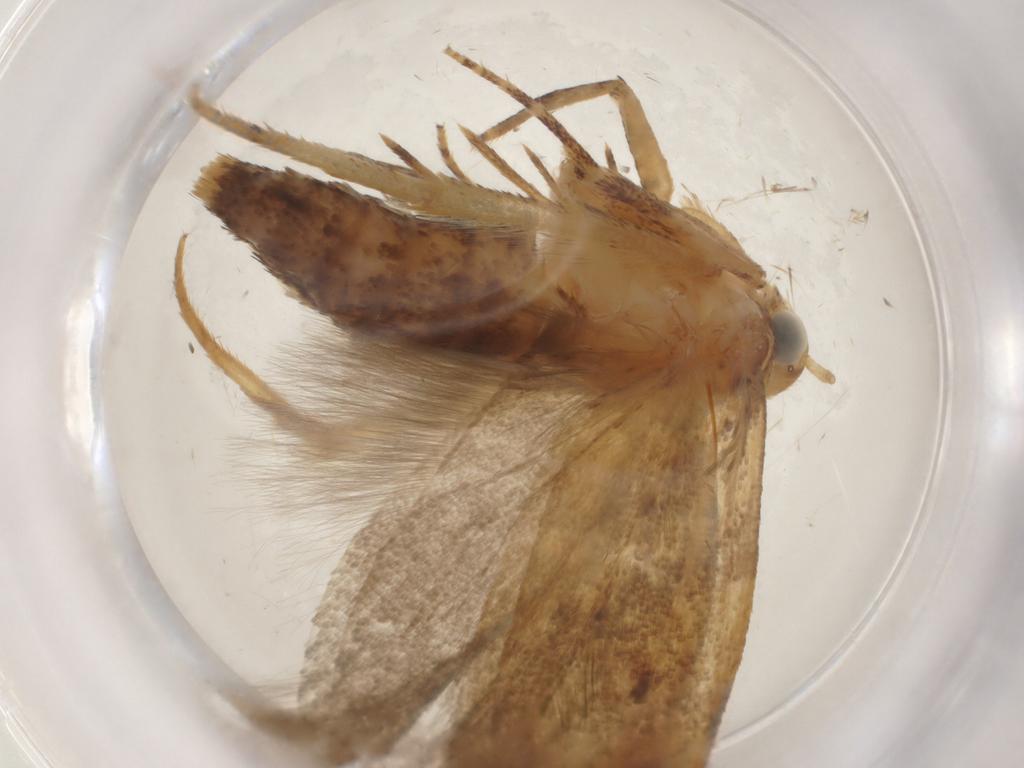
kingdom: Animalia
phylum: Arthropoda
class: Insecta
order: Lepidoptera
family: Gelechiidae
